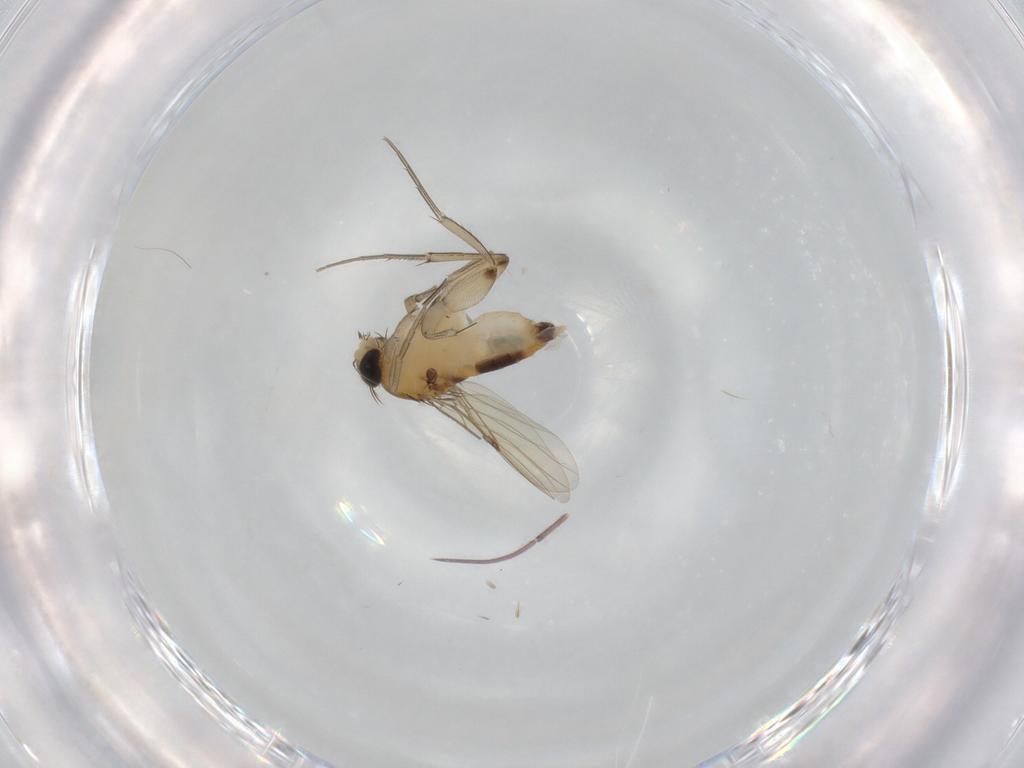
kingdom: Animalia
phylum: Arthropoda
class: Insecta
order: Diptera
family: Phoridae
